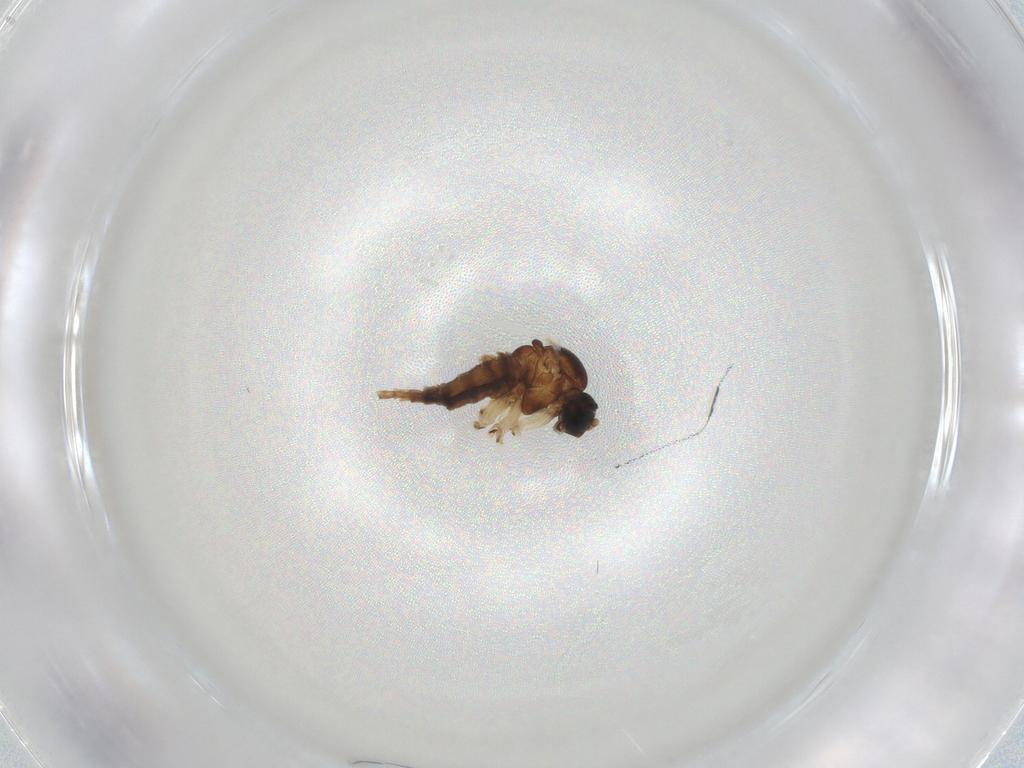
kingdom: Animalia
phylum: Arthropoda
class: Insecta
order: Diptera
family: Sciaridae
